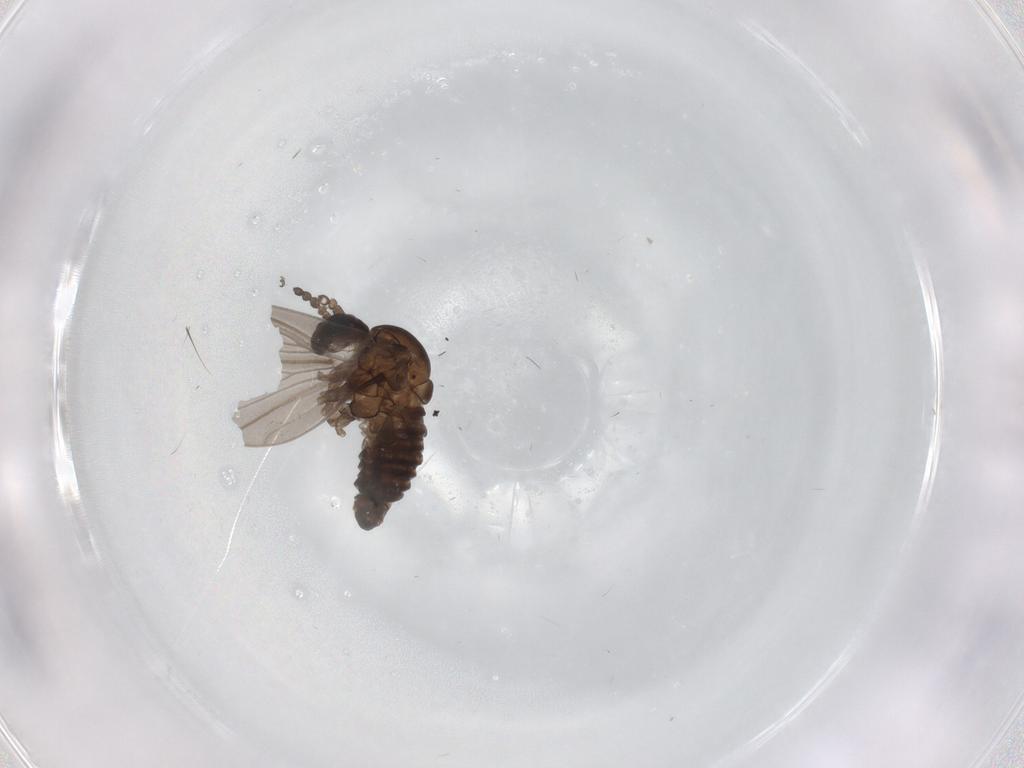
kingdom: Animalia
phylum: Arthropoda
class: Insecta
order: Diptera
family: Psychodidae
